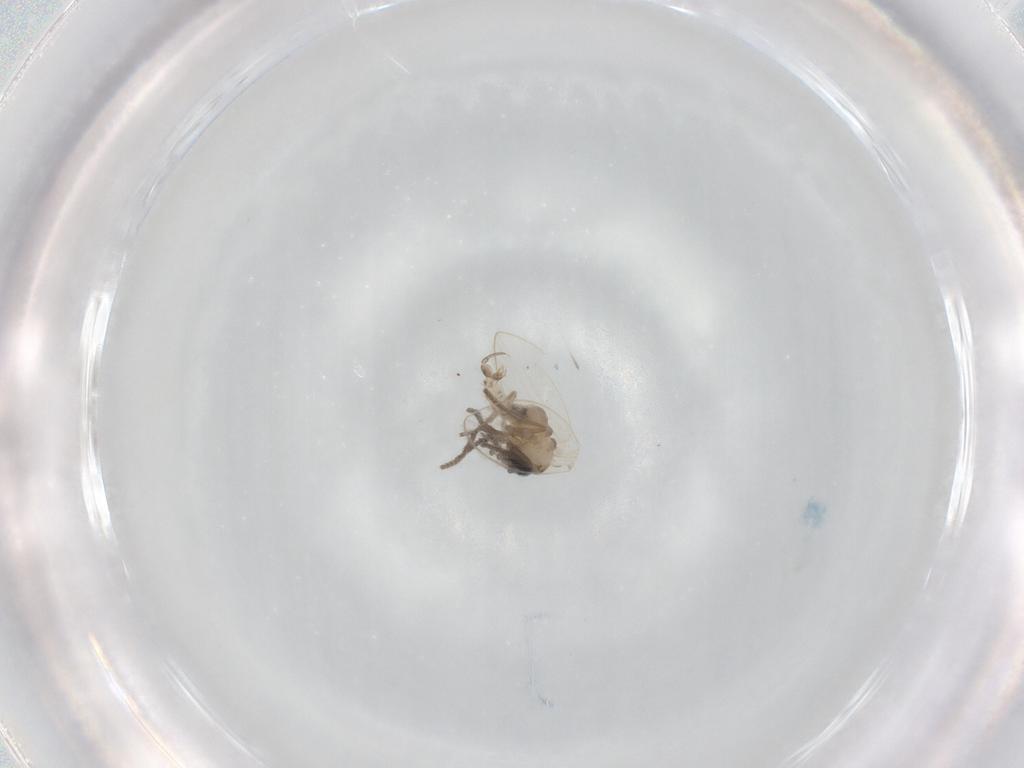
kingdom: Animalia
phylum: Arthropoda
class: Insecta
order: Diptera
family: Psychodidae
